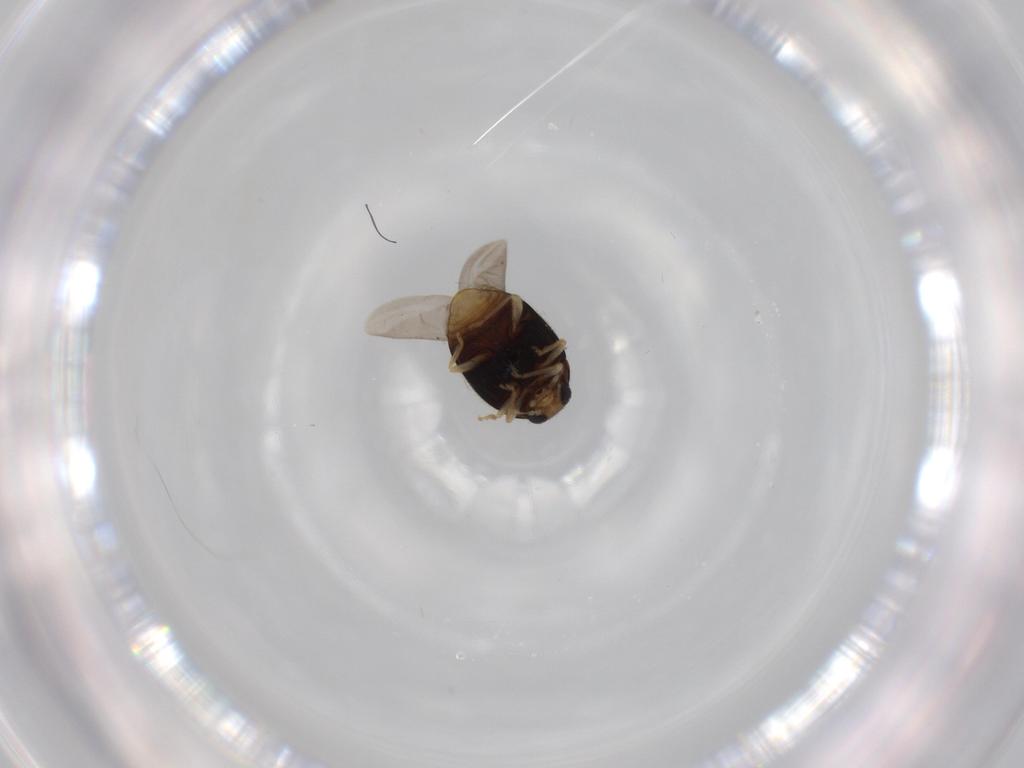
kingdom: Animalia
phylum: Arthropoda
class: Insecta
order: Coleoptera
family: Coccinellidae
